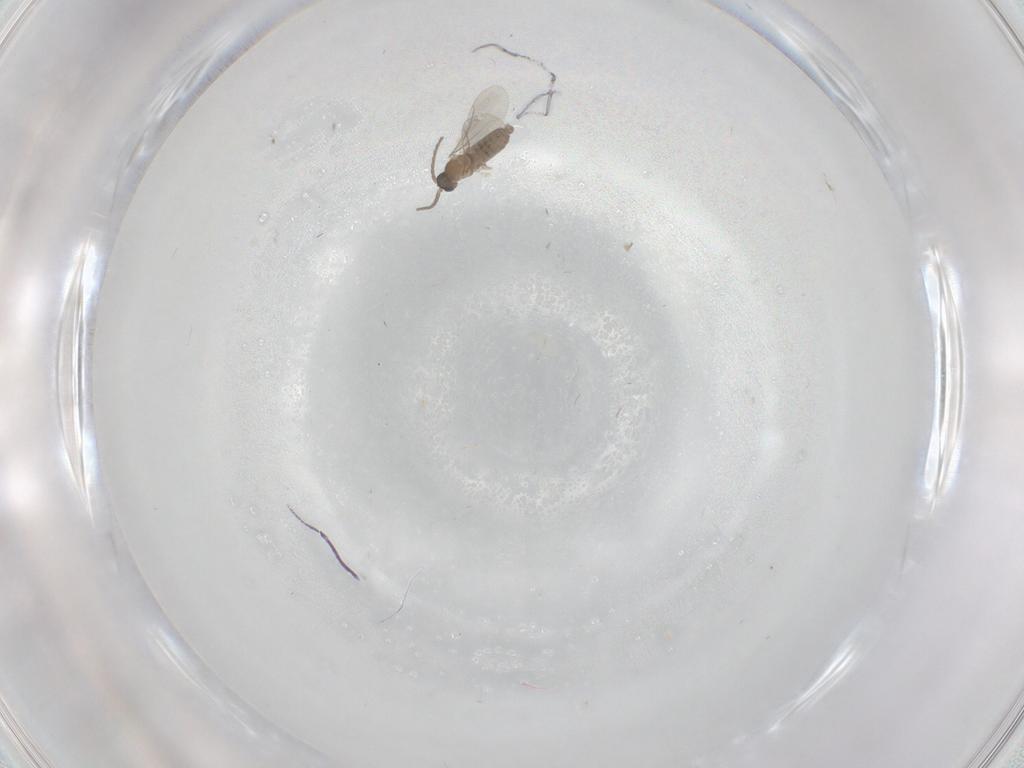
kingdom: Animalia
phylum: Arthropoda
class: Insecta
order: Diptera
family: Cecidomyiidae
